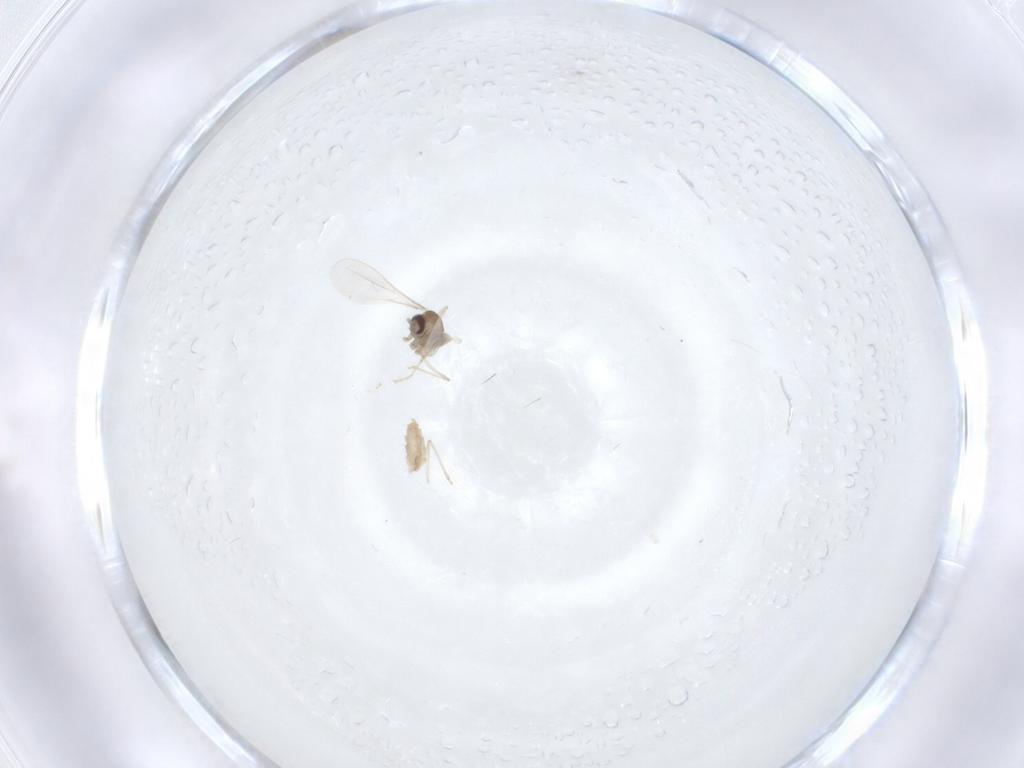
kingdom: Animalia
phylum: Arthropoda
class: Insecta
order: Diptera
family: Cecidomyiidae
